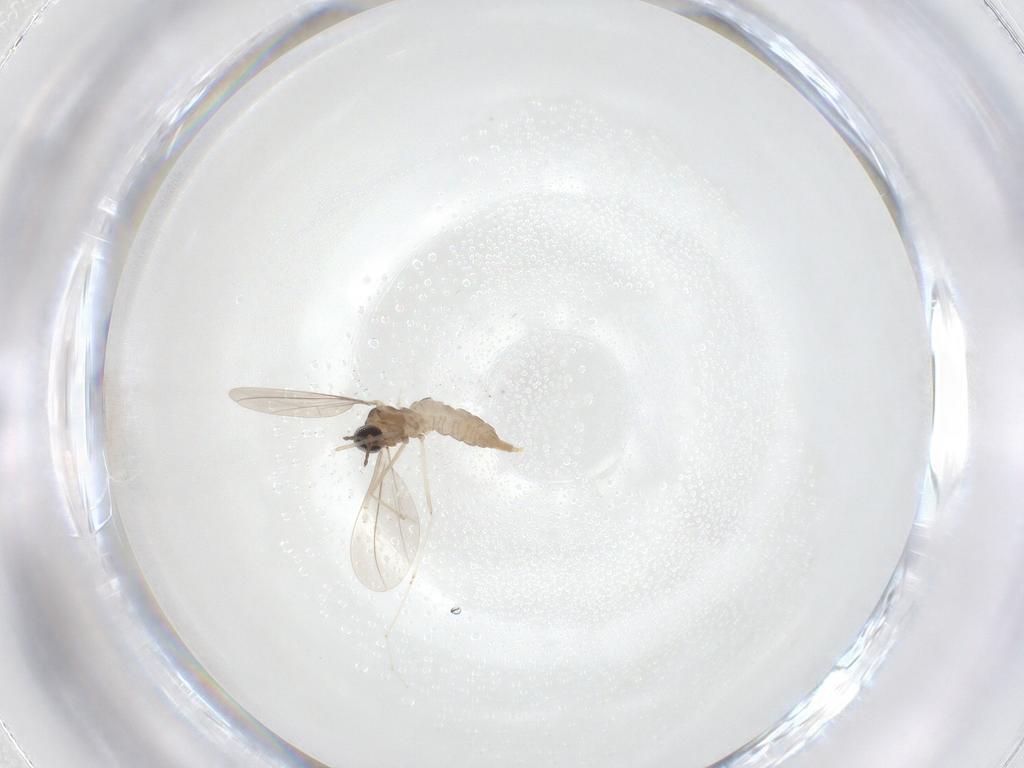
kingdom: Animalia
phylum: Arthropoda
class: Insecta
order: Diptera
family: Cecidomyiidae
